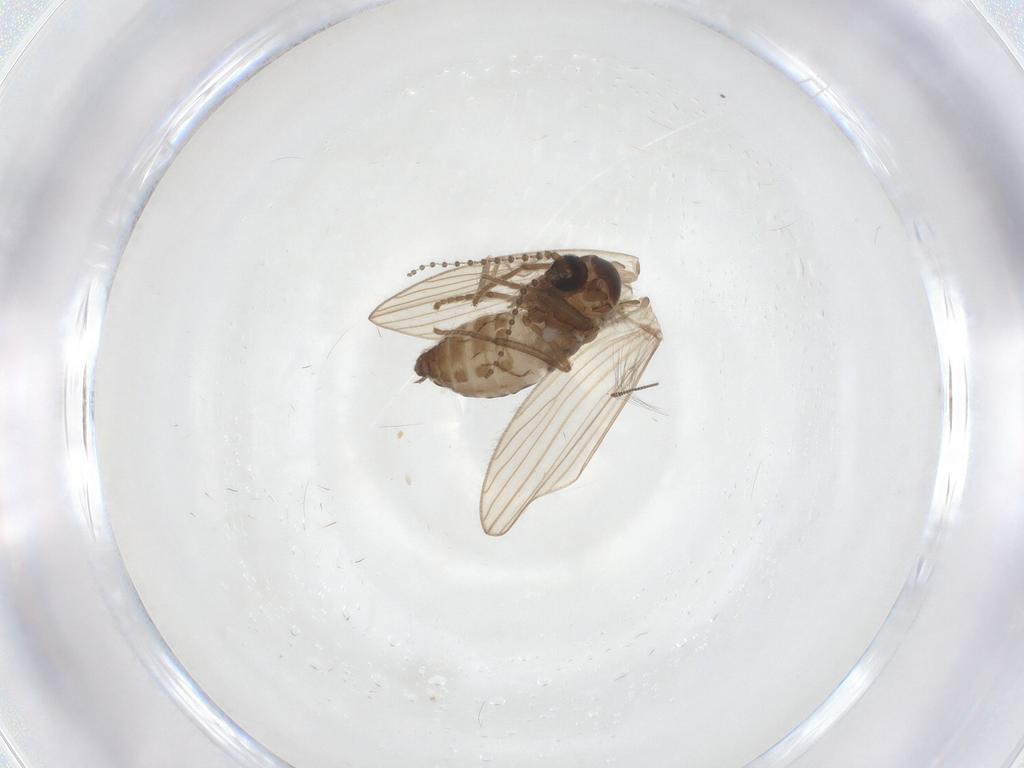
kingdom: Animalia
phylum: Arthropoda
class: Insecta
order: Diptera
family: Psychodidae
